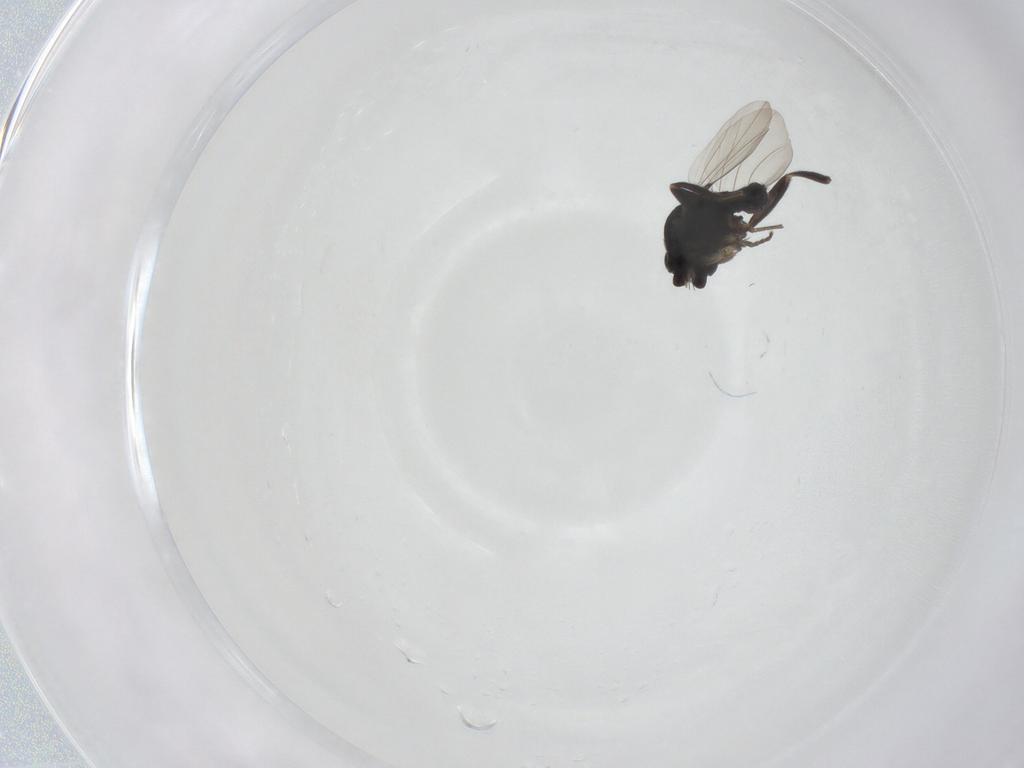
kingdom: Animalia
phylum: Arthropoda
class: Insecta
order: Diptera
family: Phoridae
